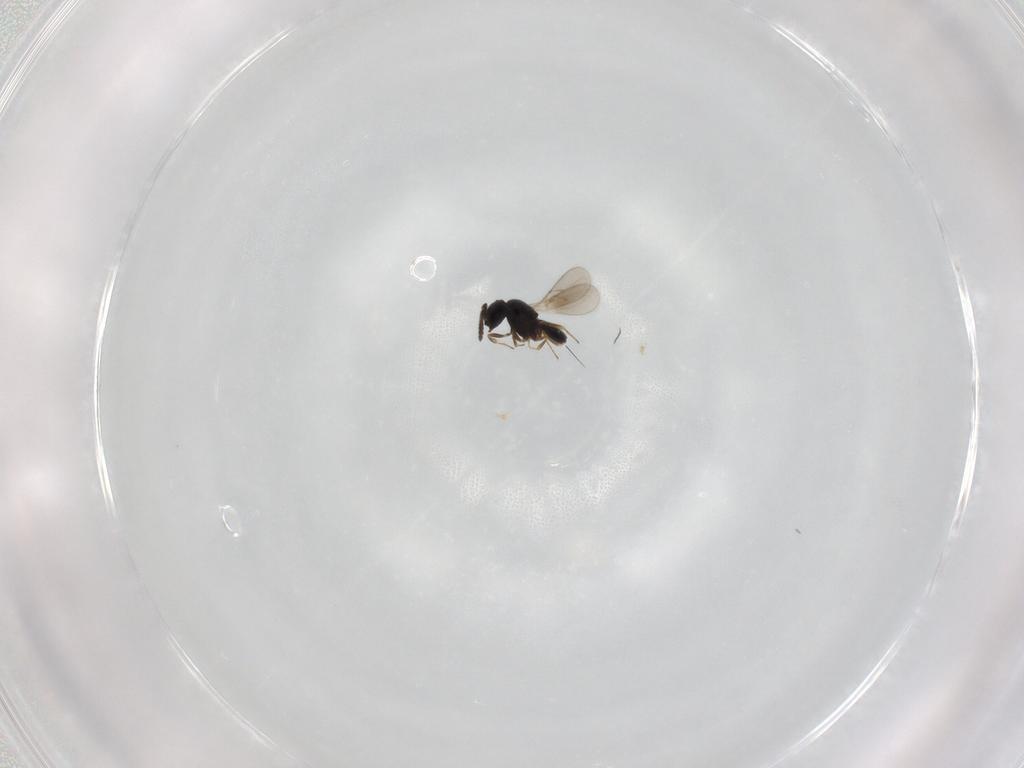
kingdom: Animalia
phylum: Arthropoda
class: Insecta
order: Hymenoptera
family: Scelionidae
